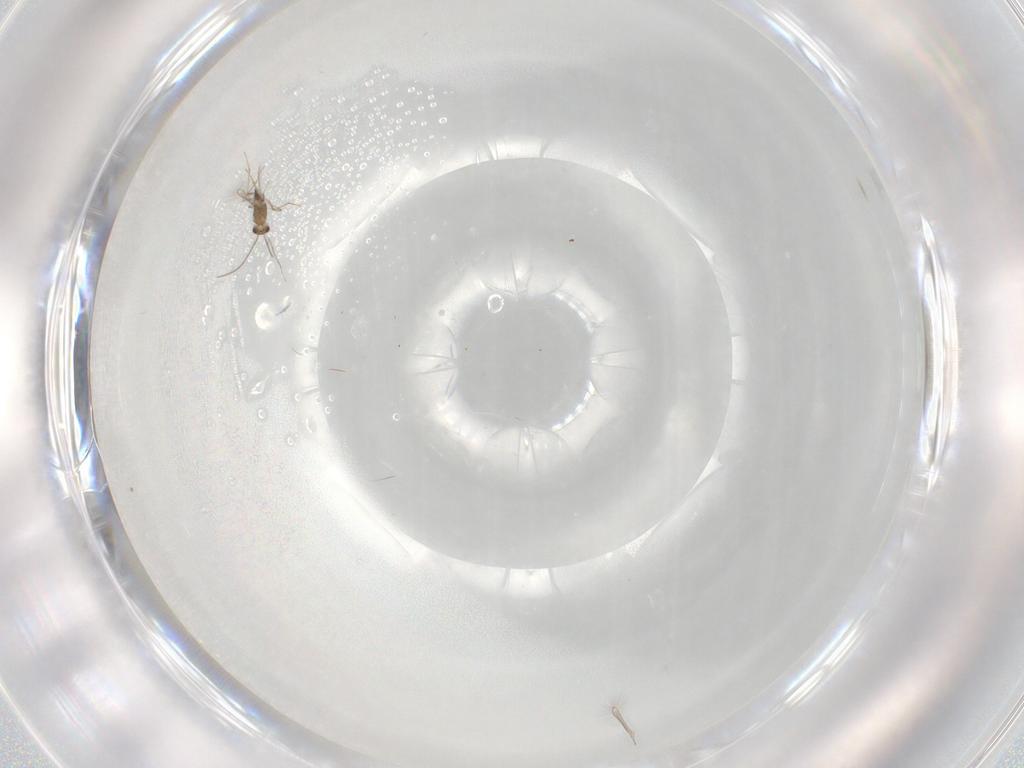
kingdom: Animalia
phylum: Arthropoda
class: Insecta
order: Hymenoptera
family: Mymaridae
